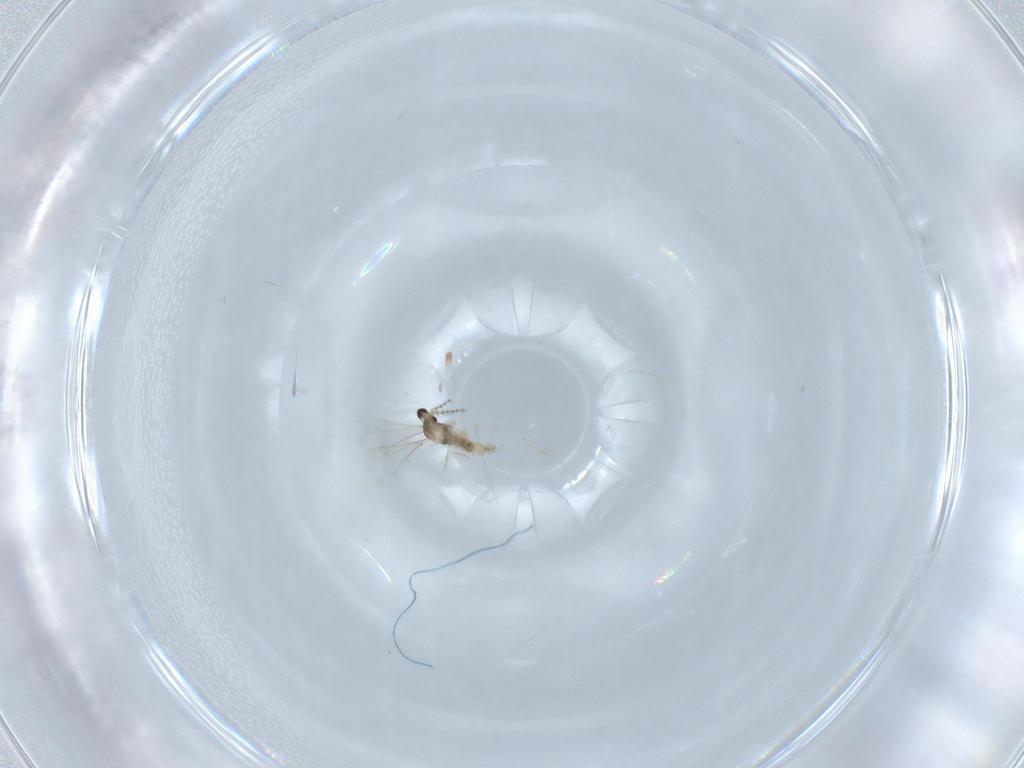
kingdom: Animalia
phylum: Arthropoda
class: Insecta
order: Diptera
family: Cecidomyiidae
